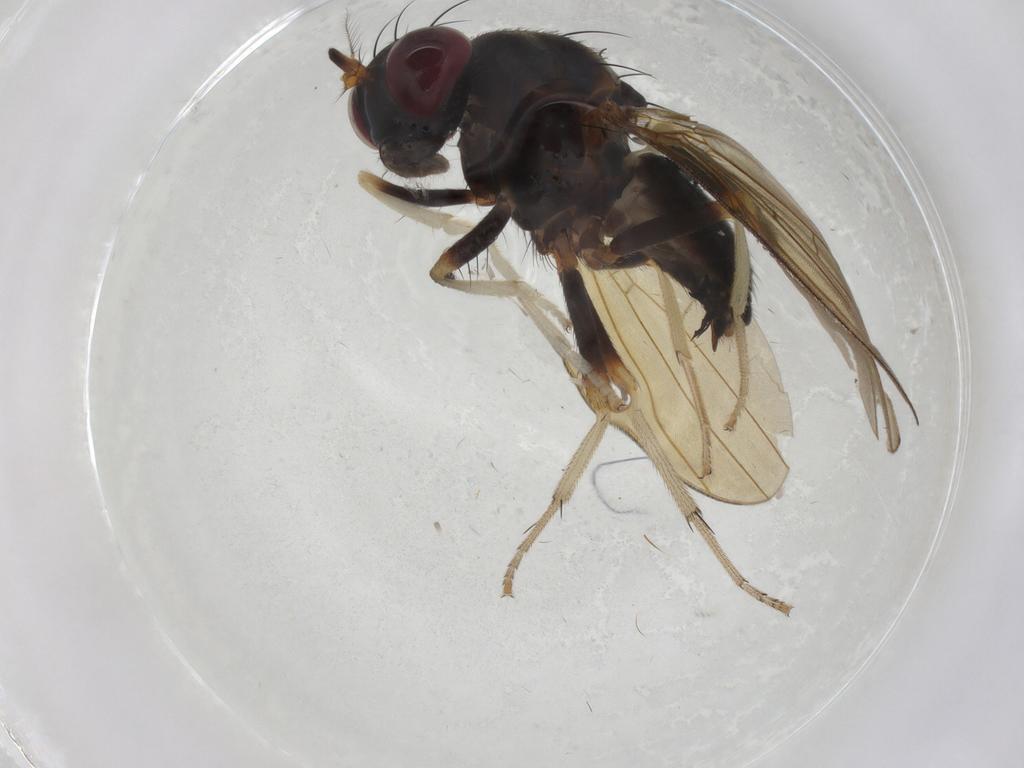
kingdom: Animalia
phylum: Arthropoda
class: Insecta
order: Diptera
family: Lauxaniidae
